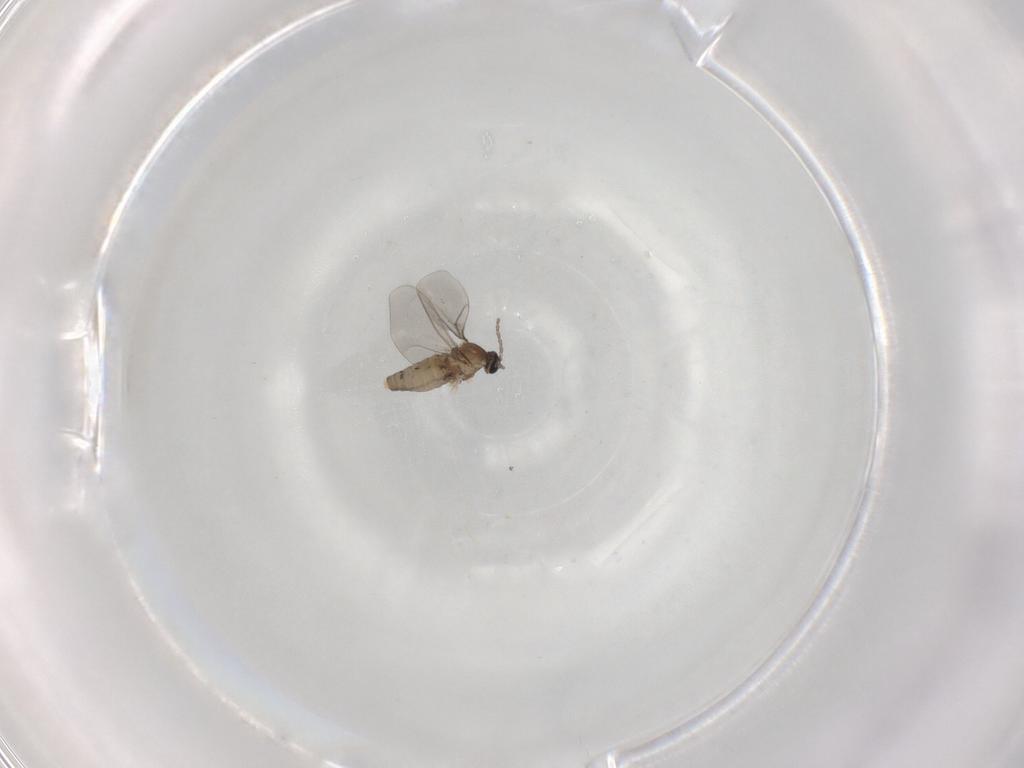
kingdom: Animalia
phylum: Arthropoda
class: Insecta
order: Diptera
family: Cecidomyiidae
